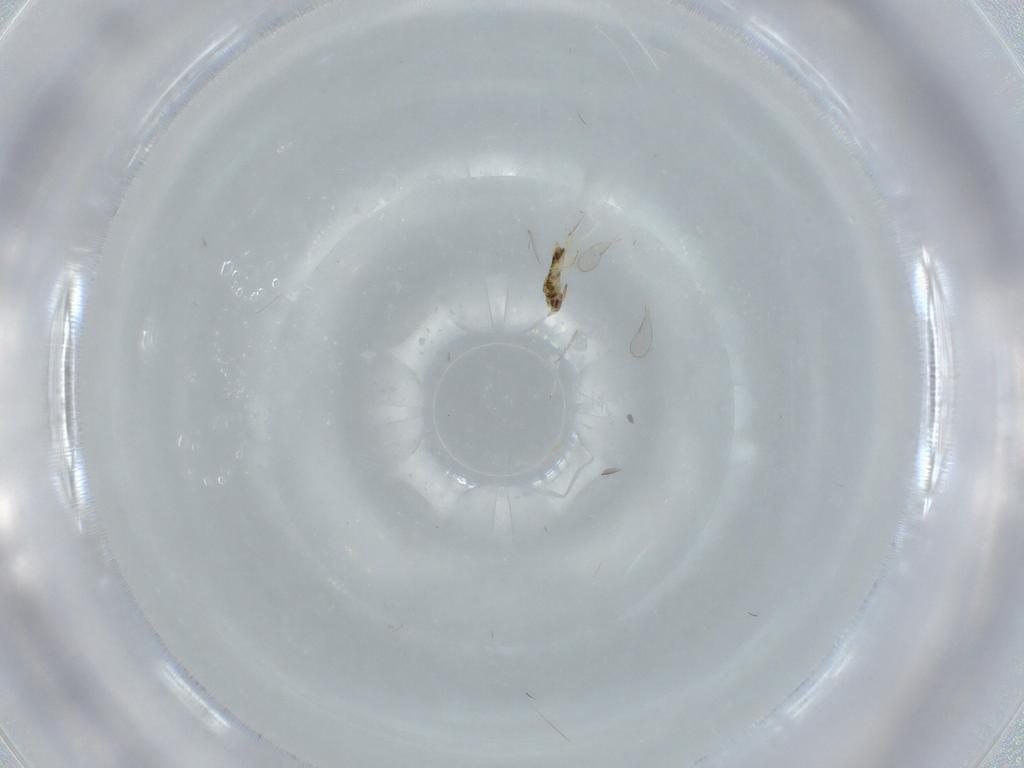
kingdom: Animalia
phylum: Arthropoda
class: Insecta
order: Hymenoptera
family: Aphelinidae
